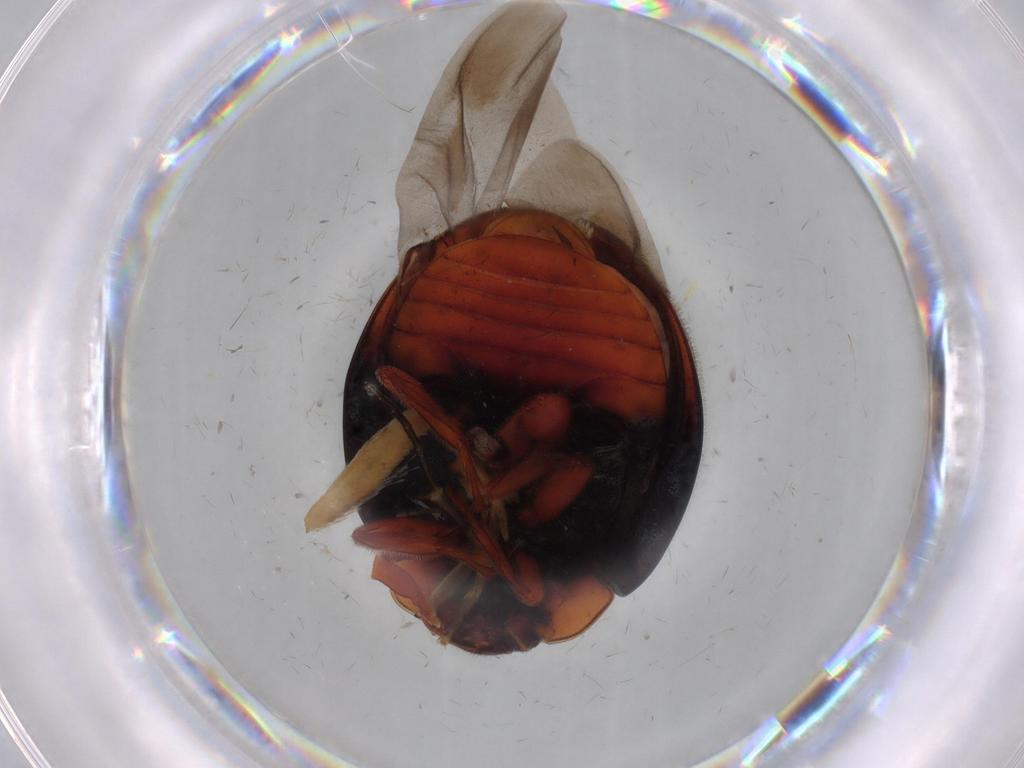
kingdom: Animalia
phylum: Arthropoda
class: Insecta
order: Coleoptera
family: Coccinellidae
